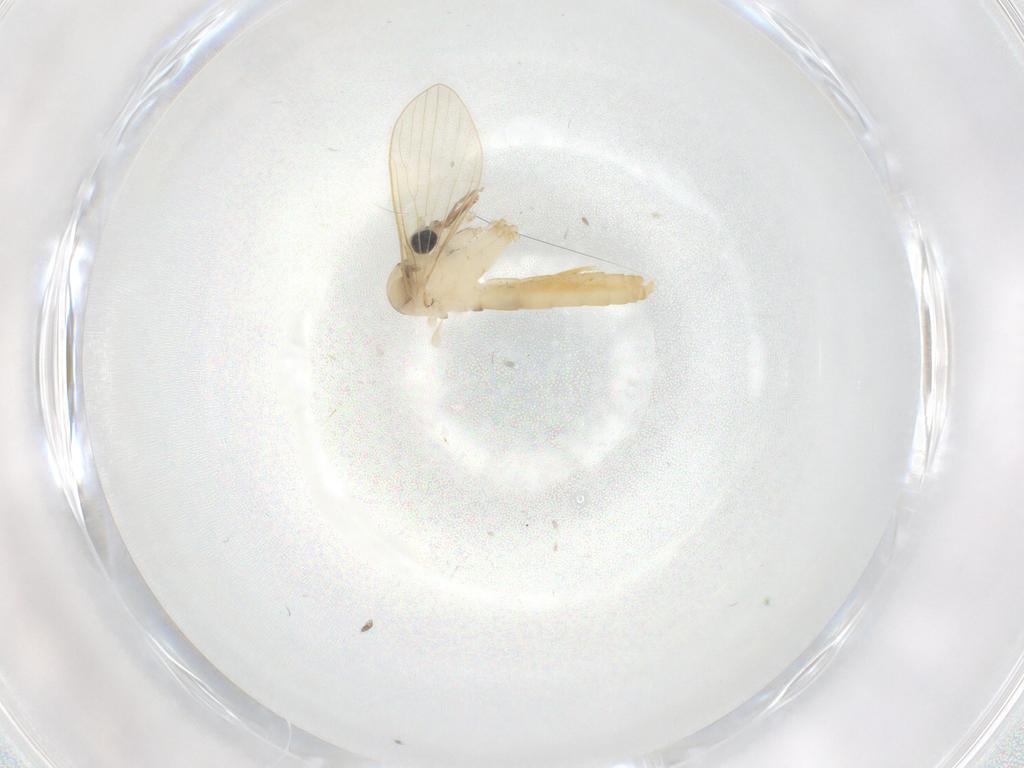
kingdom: Animalia
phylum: Arthropoda
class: Insecta
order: Diptera
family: Psychodidae
